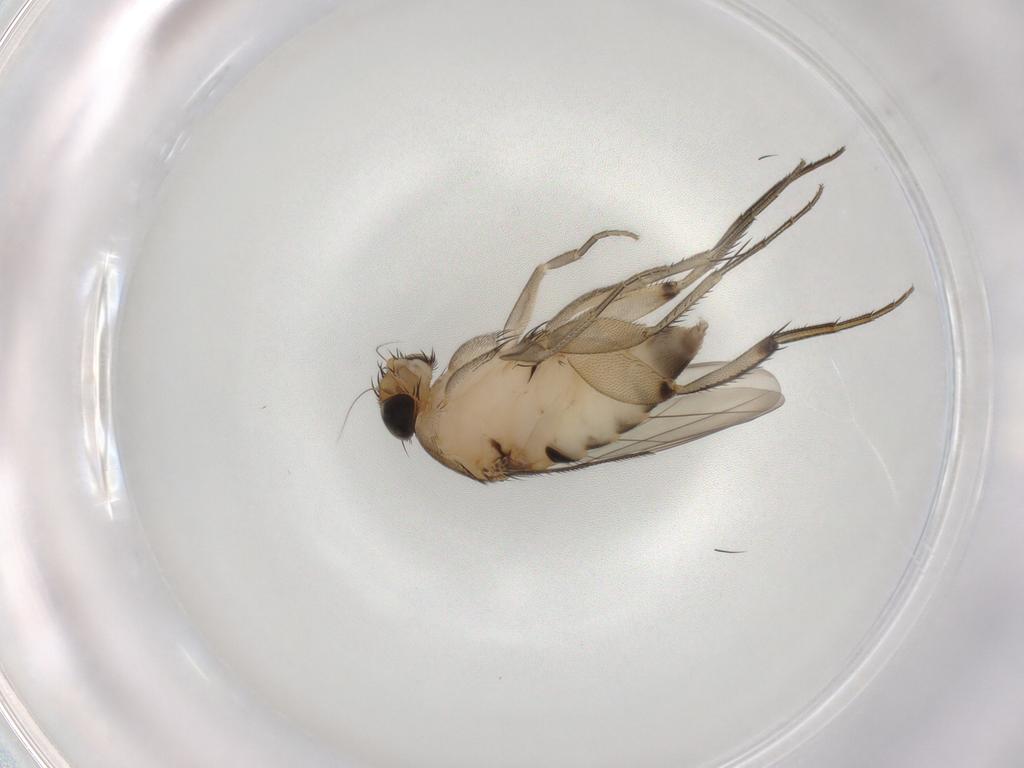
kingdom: Animalia
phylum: Arthropoda
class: Insecta
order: Diptera
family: Phoridae
